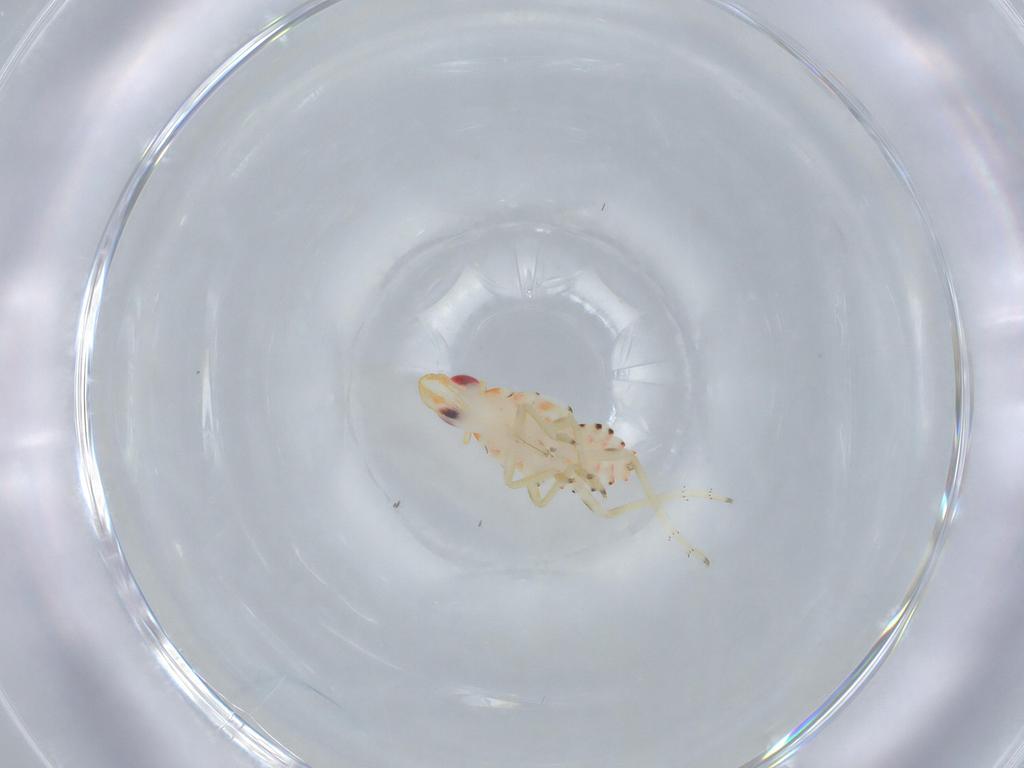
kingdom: Animalia
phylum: Arthropoda
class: Insecta
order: Hemiptera
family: Tropiduchidae
